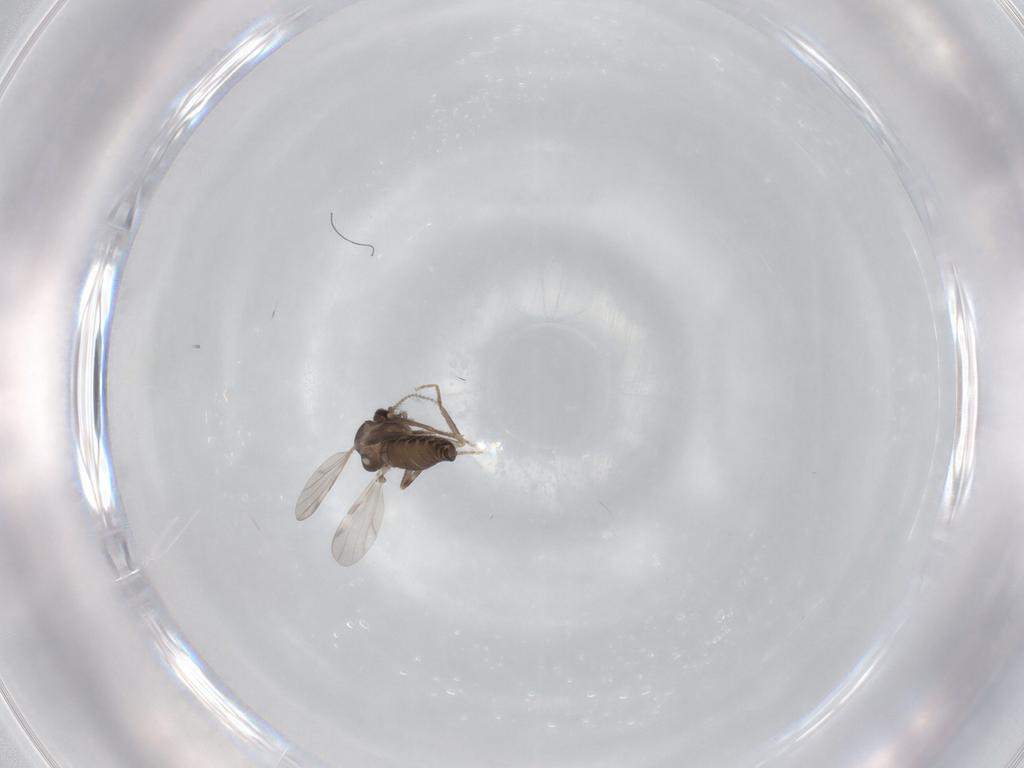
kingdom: Animalia
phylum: Arthropoda
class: Insecta
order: Diptera
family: Ceratopogonidae
